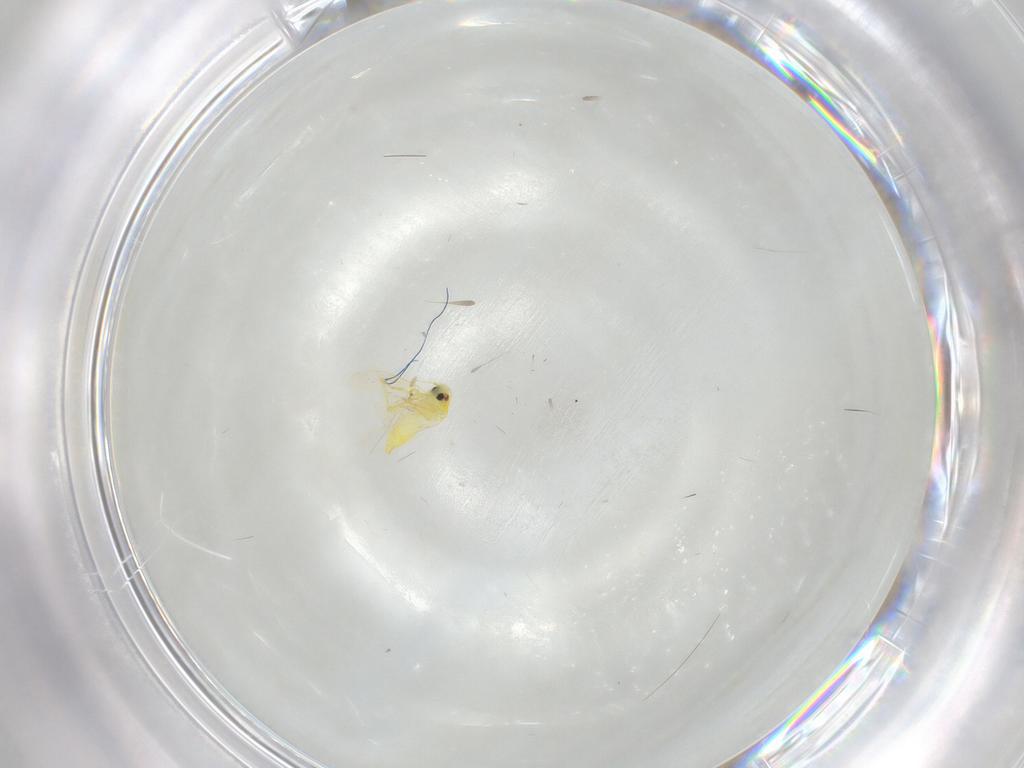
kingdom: Animalia
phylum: Arthropoda
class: Insecta
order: Hemiptera
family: Aleyrodidae
